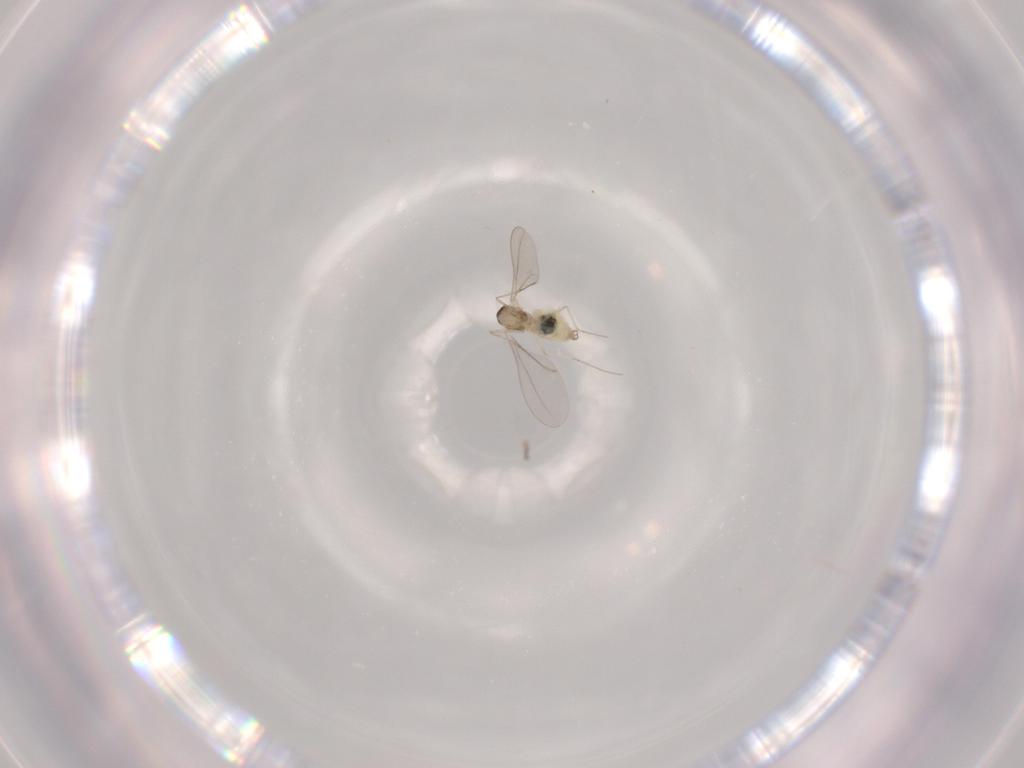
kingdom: Animalia
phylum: Arthropoda
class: Insecta
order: Diptera
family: Cecidomyiidae
